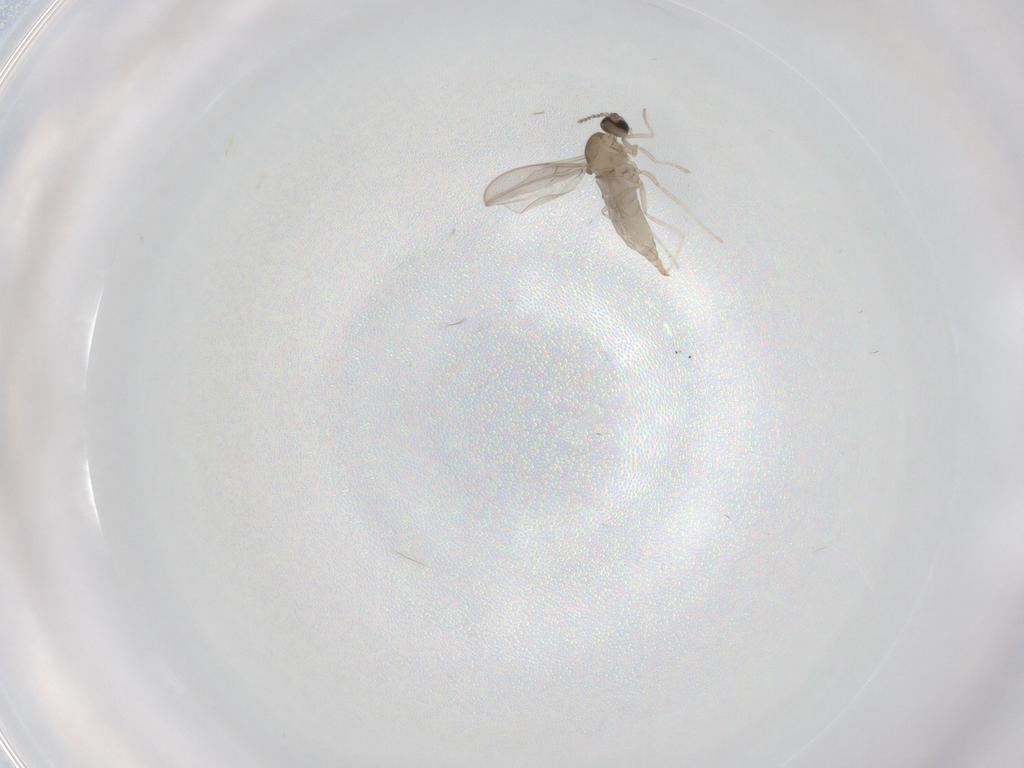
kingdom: Animalia
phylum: Arthropoda
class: Insecta
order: Diptera
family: Cecidomyiidae
